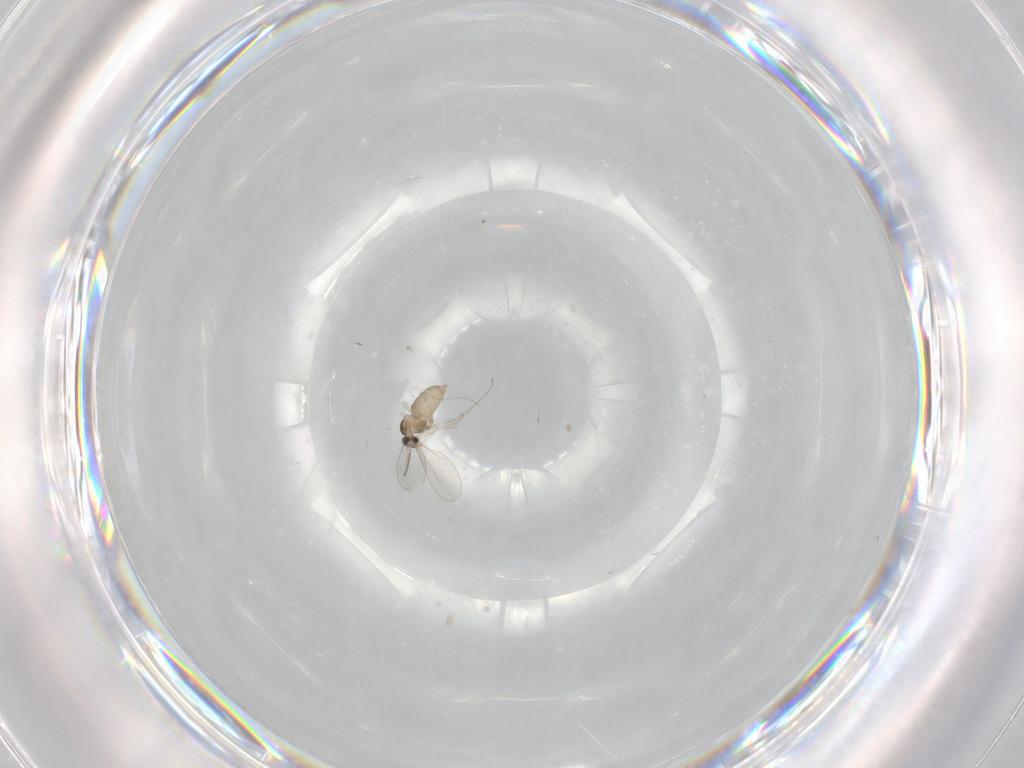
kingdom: Animalia
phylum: Arthropoda
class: Insecta
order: Diptera
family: Cecidomyiidae
